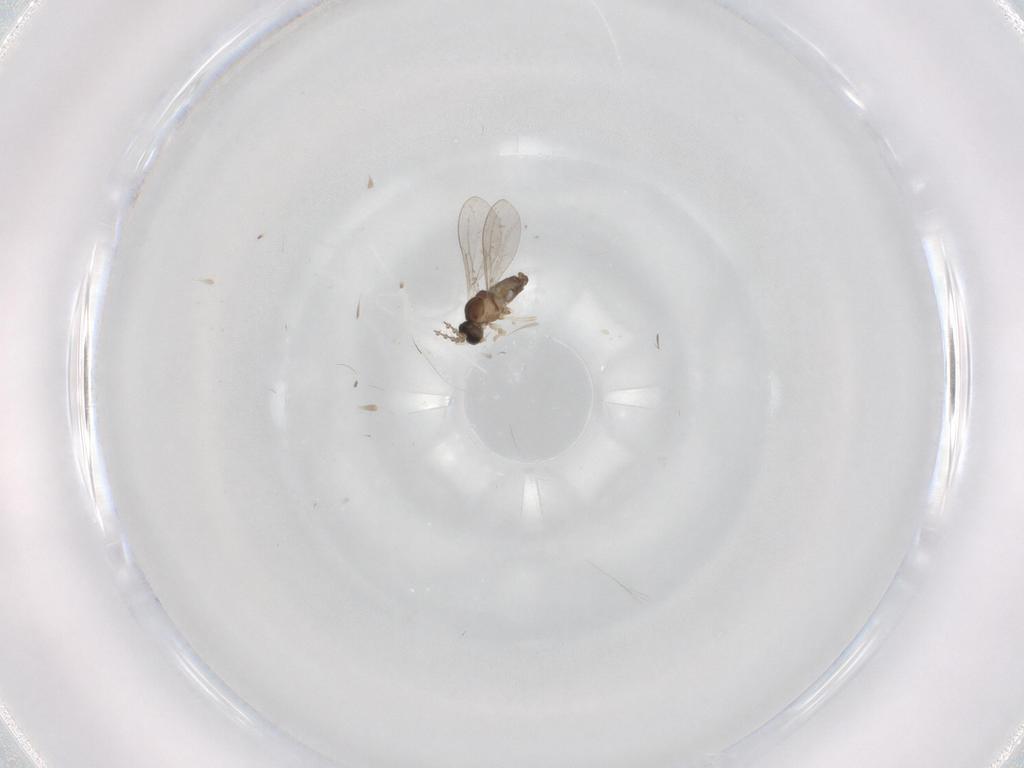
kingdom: Animalia
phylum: Arthropoda
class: Insecta
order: Diptera
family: Cecidomyiidae
